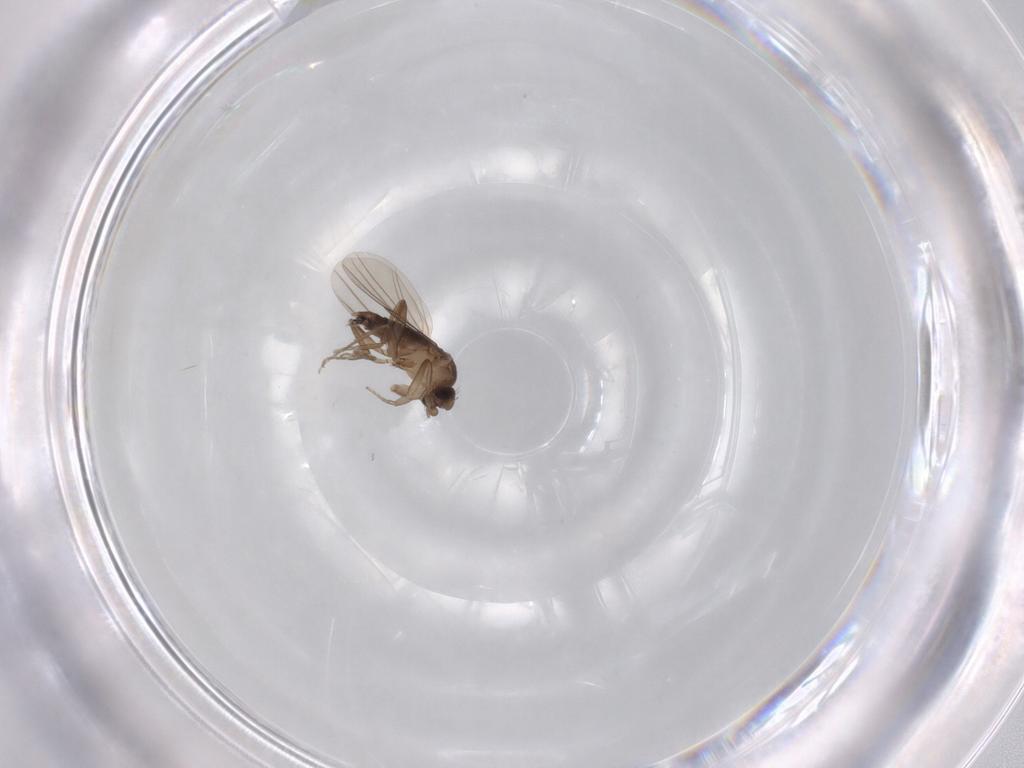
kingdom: Animalia
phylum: Arthropoda
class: Insecta
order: Diptera
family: Phoridae
